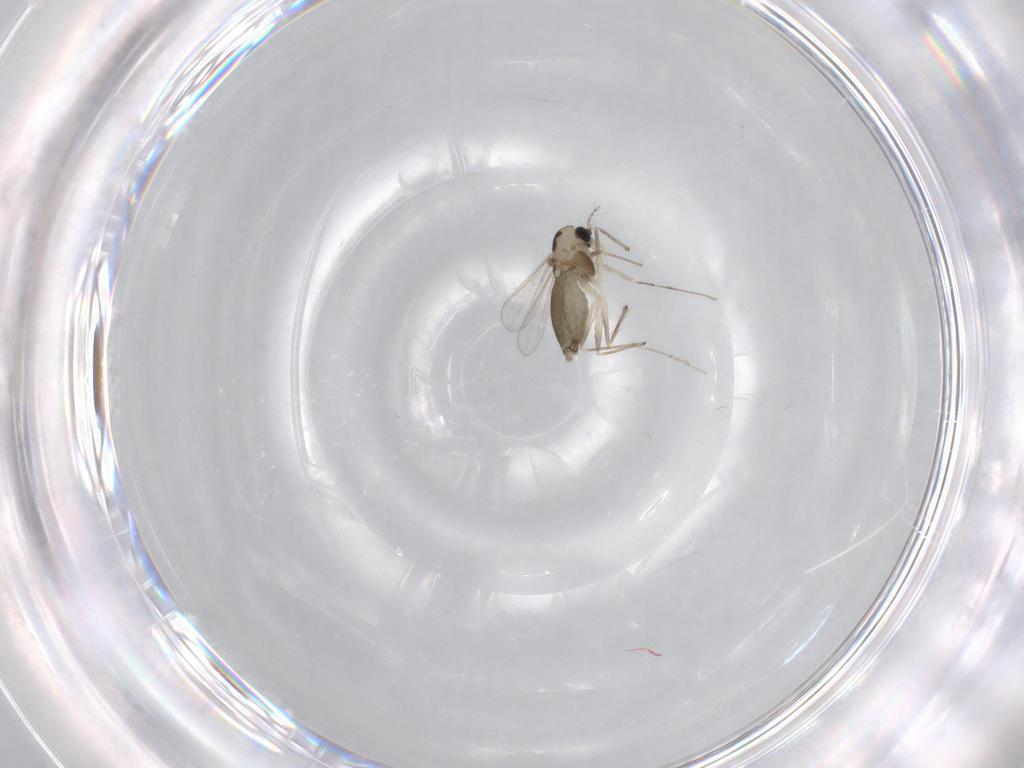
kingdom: Animalia
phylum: Arthropoda
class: Insecta
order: Diptera
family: Chironomidae
